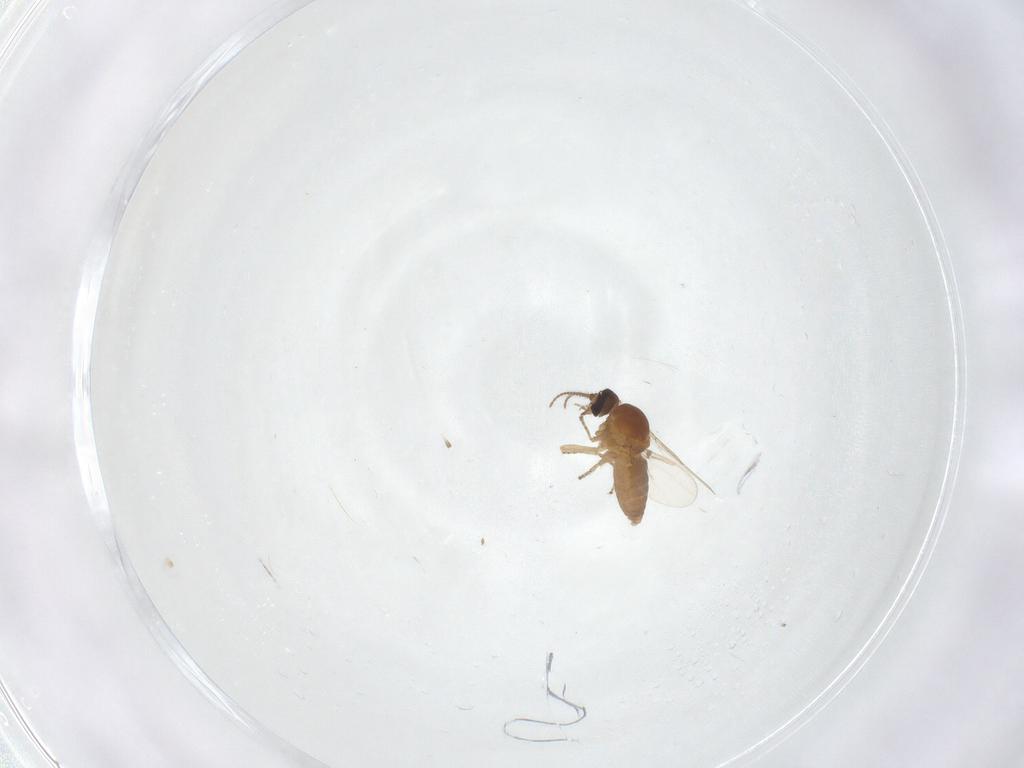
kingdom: Animalia
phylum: Arthropoda
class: Insecta
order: Diptera
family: Ceratopogonidae
